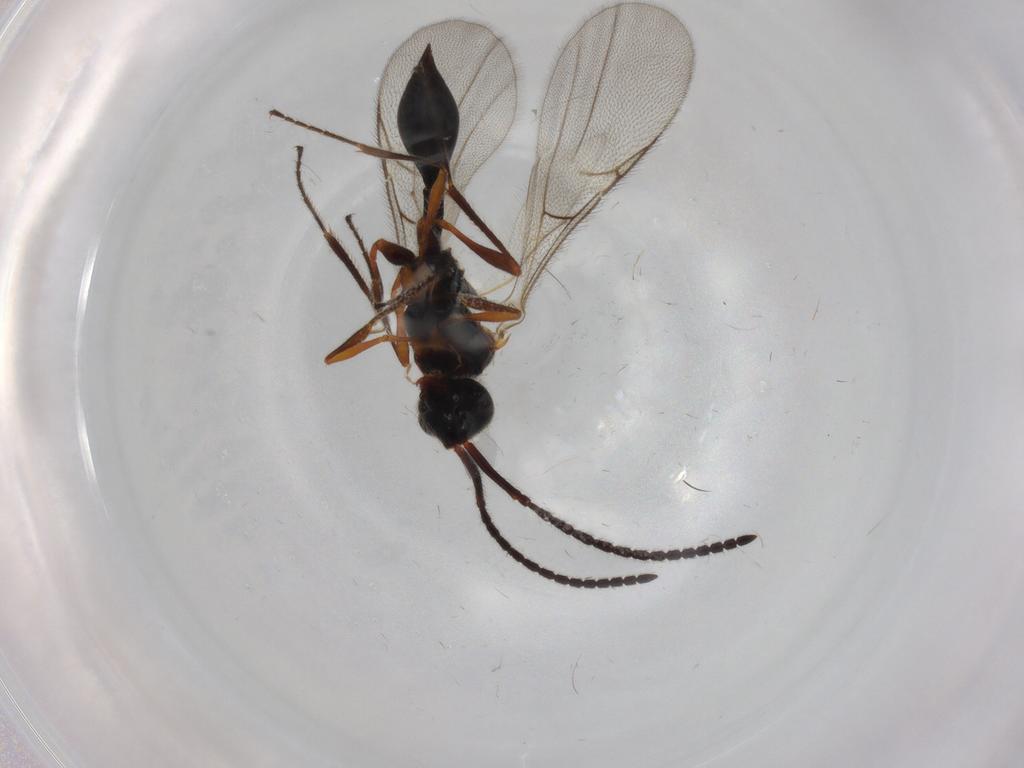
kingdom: Animalia
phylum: Arthropoda
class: Insecta
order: Hymenoptera
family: Diapriidae
